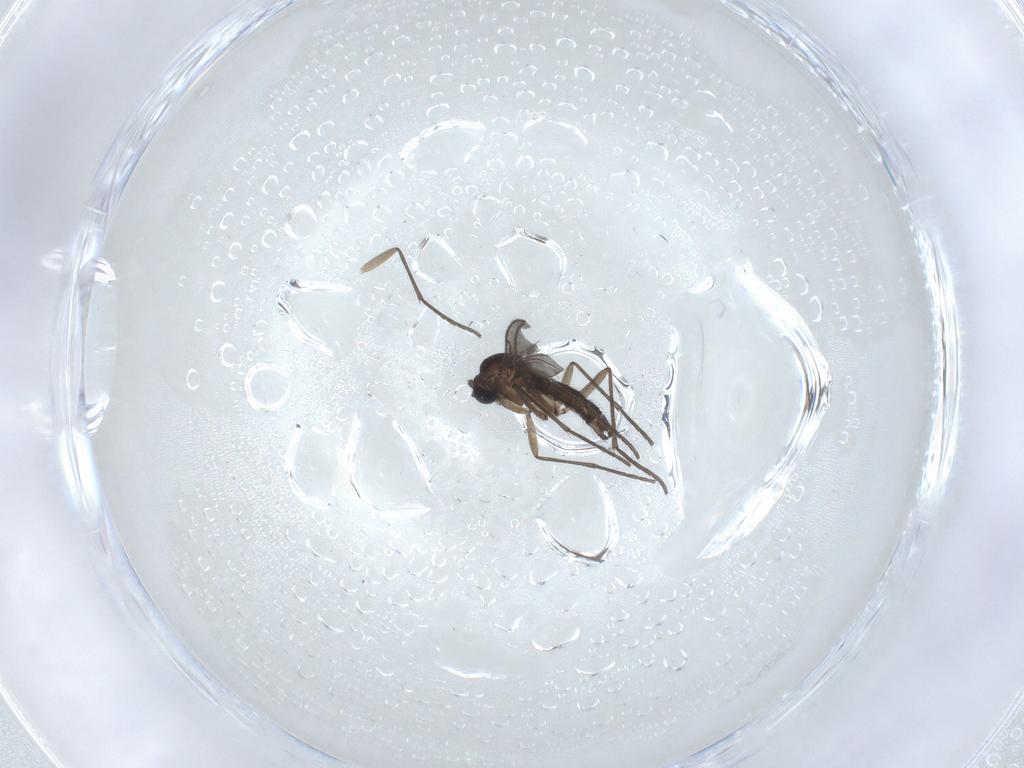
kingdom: Animalia
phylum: Arthropoda
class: Insecta
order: Diptera
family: Sciaridae
